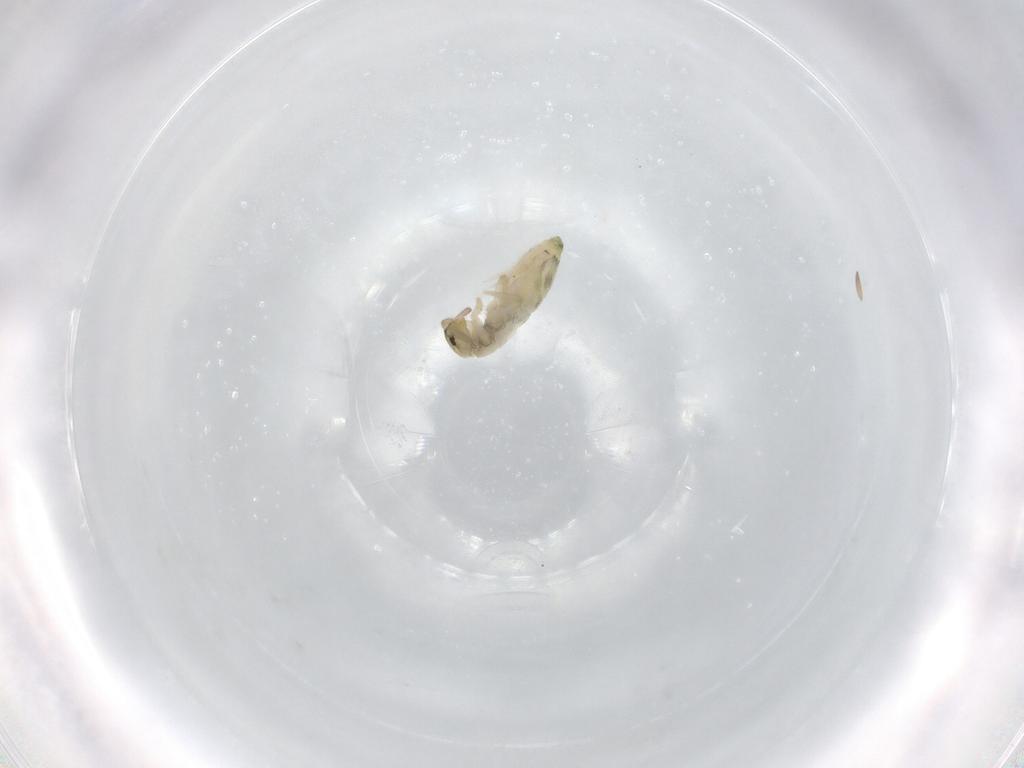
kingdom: Animalia
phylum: Arthropoda
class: Collembola
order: Entomobryomorpha
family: Entomobryidae
